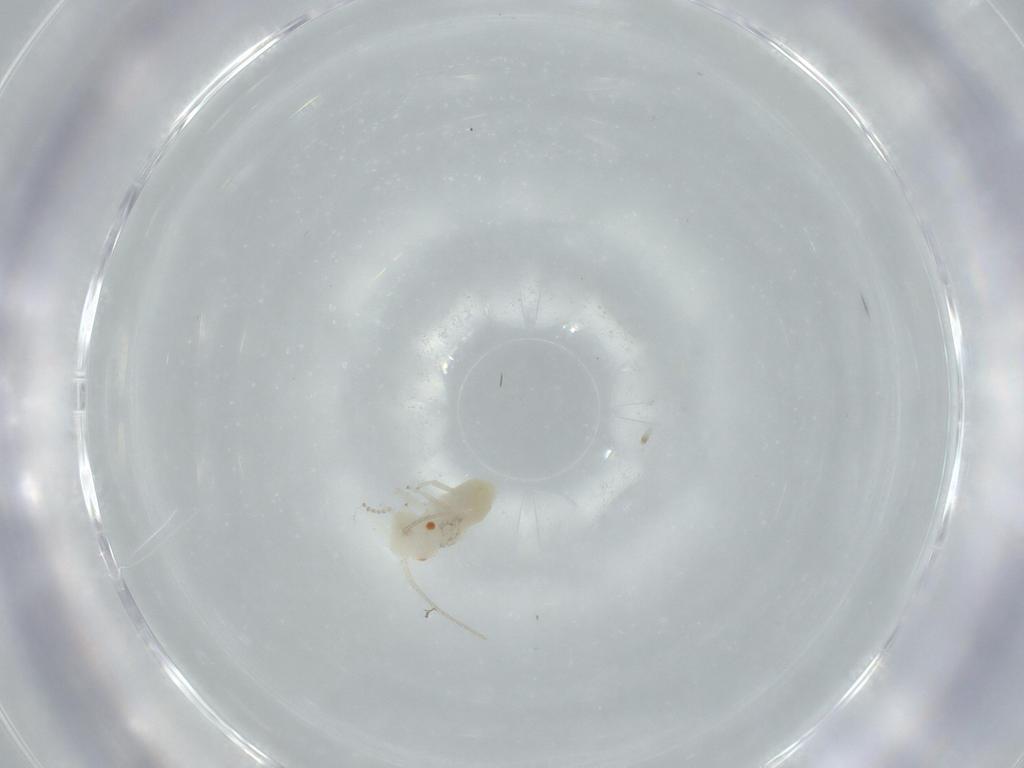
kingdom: Animalia
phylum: Arthropoda
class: Insecta
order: Psocodea
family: Caeciliusidae
